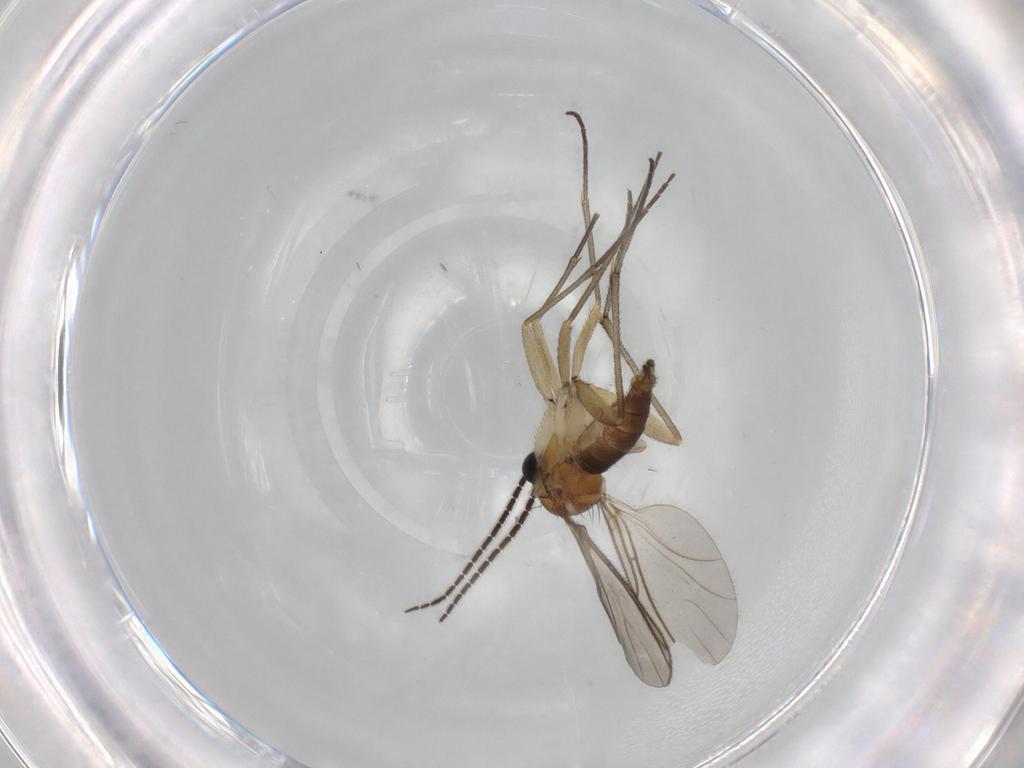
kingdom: Animalia
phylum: Arthropoda
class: Insecta
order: Diptera
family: Sciaridae
